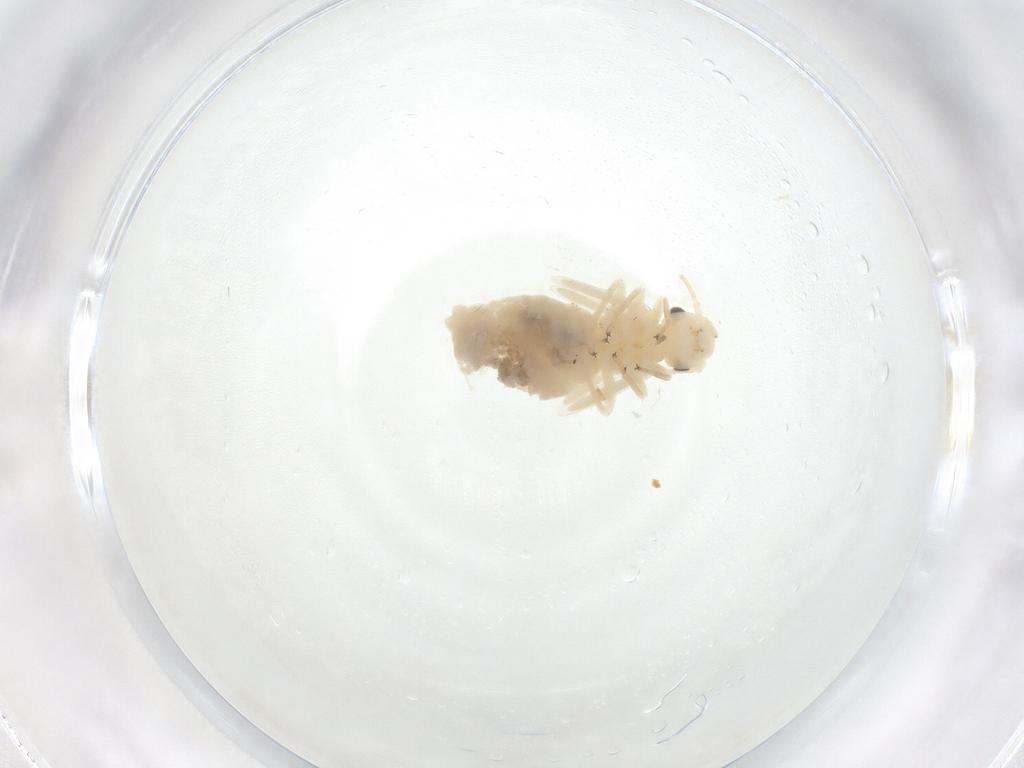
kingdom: Animalia
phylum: Arthropoda
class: Insecta
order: Psocodea
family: Caeciliusidae
